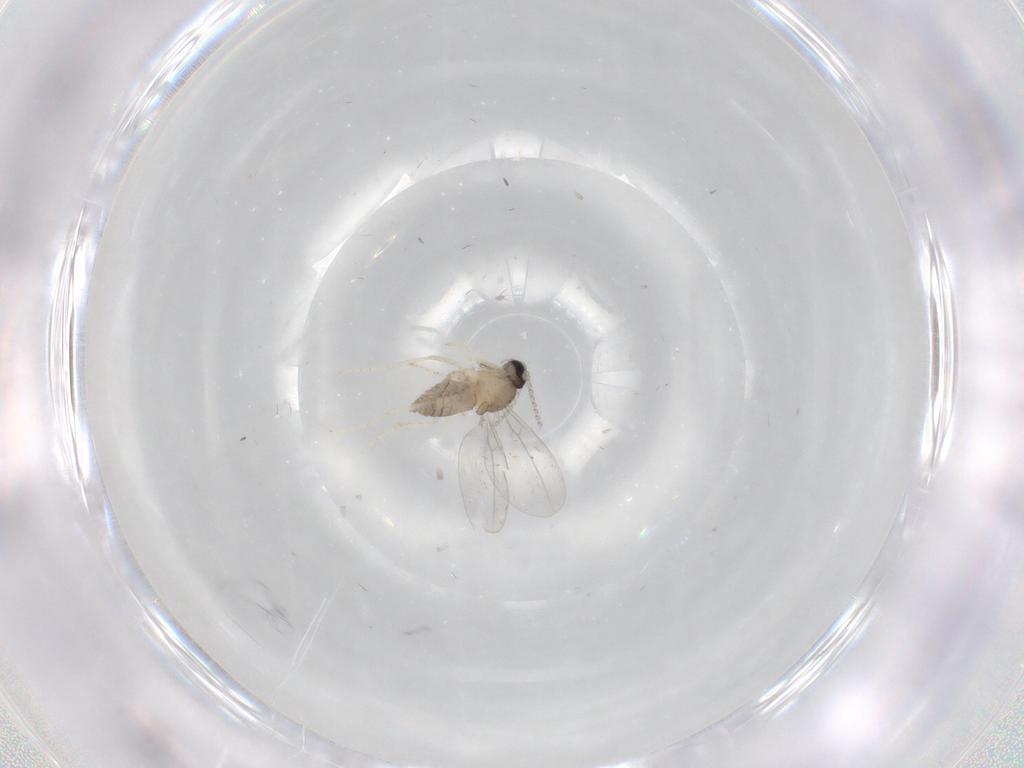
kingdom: Animalia
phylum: Arthropoda
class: Insecta
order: Diptera
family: Cecidomyiidae
